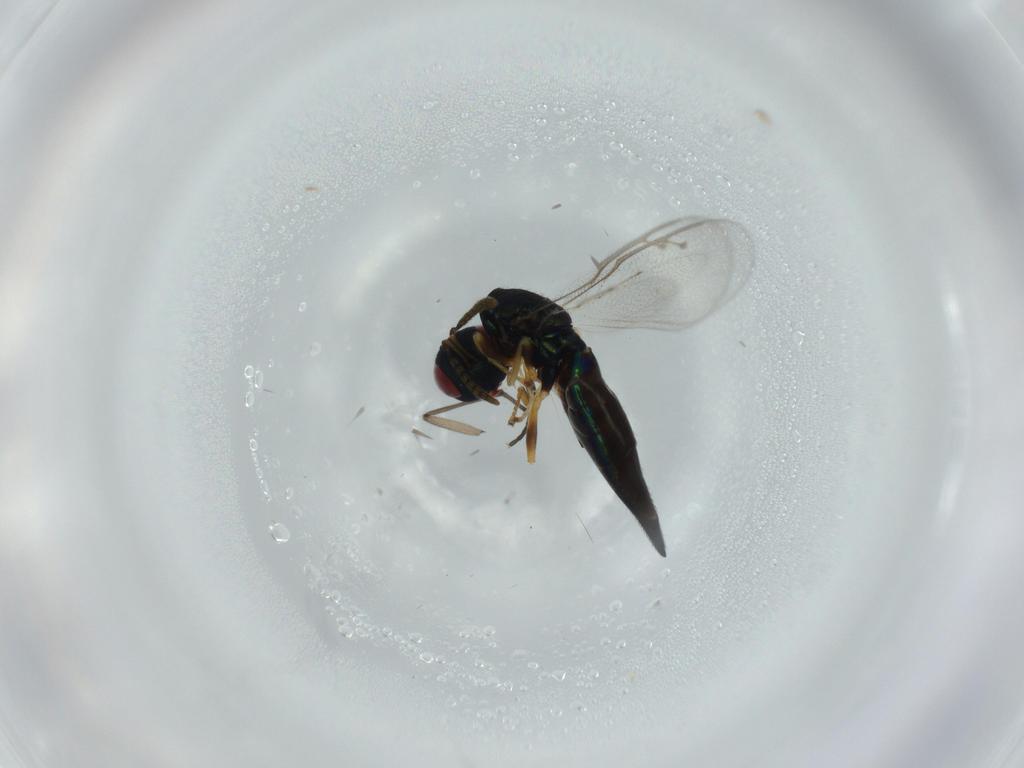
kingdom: Animalia
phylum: Arthropoda
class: Insecta
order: Hymenoptera
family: Pteromalidae
